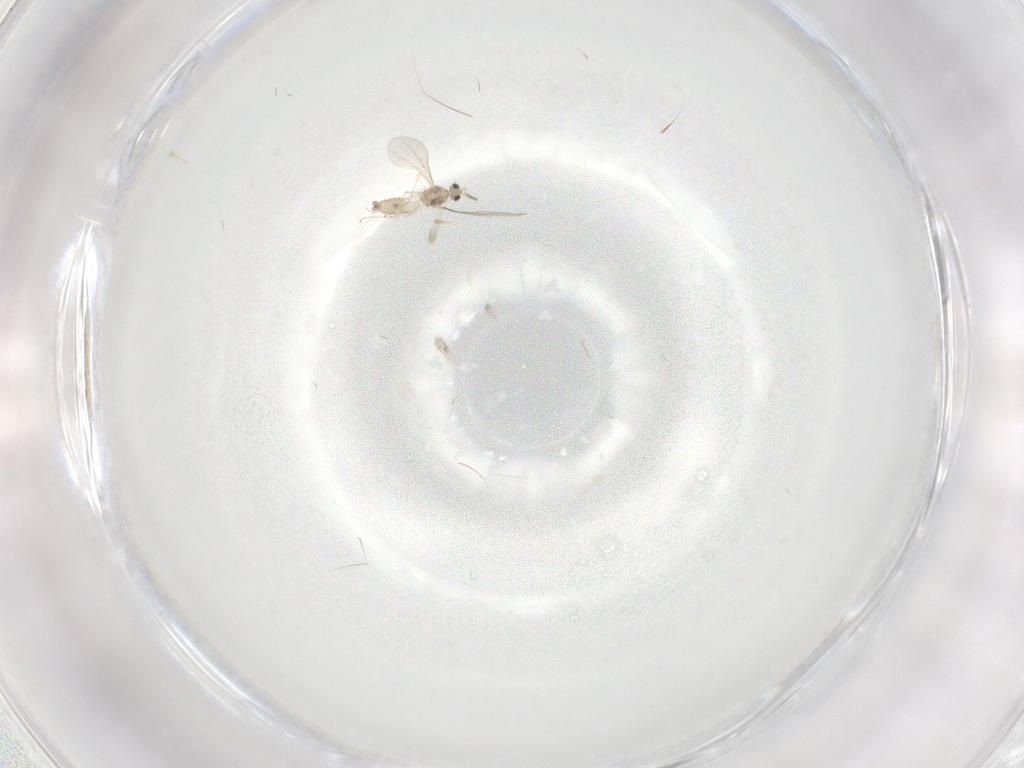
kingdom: Animalia
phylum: Arthropoda
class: Insecta
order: Diptera
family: Cecidomyiidae
